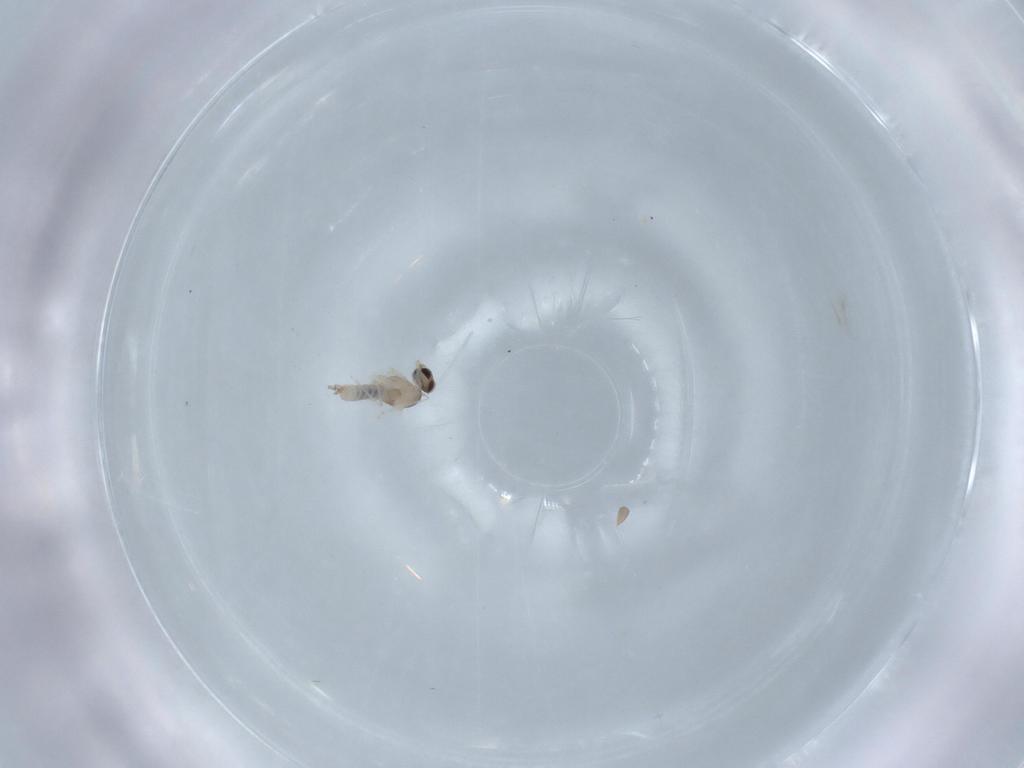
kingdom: Animalia
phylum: Arthropoda
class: Insecta
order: Diptera
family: Cecidomyiidae
